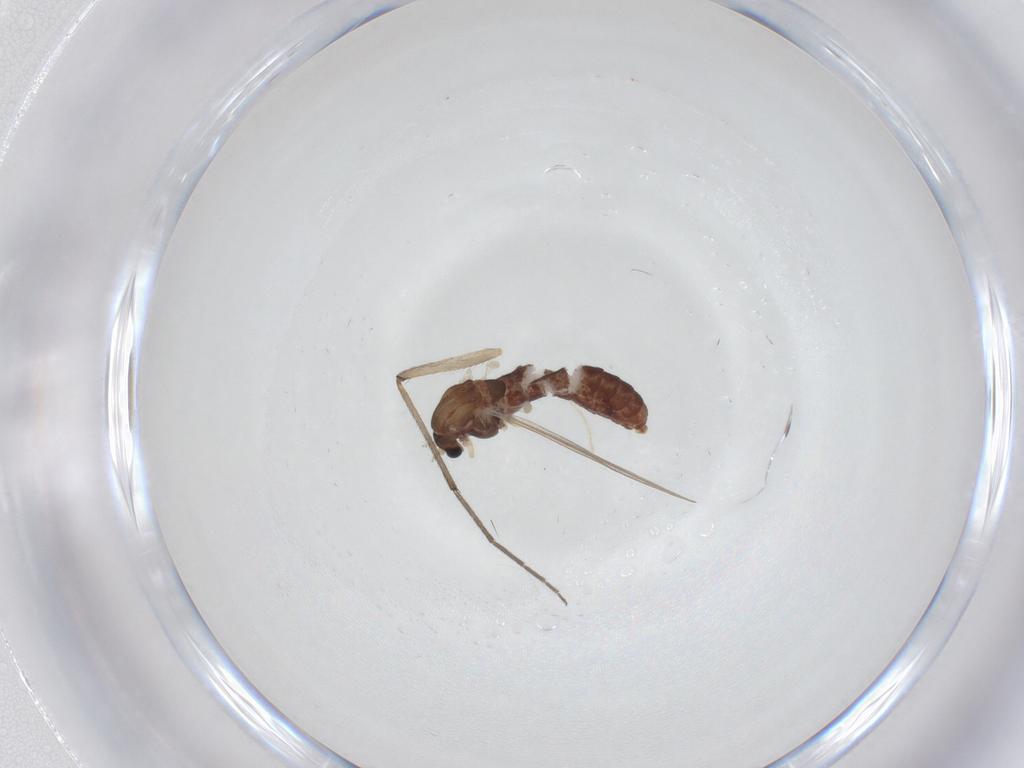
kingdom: Animalia
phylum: Arthropoda
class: Insecta
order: Diptera
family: Chironomidae
